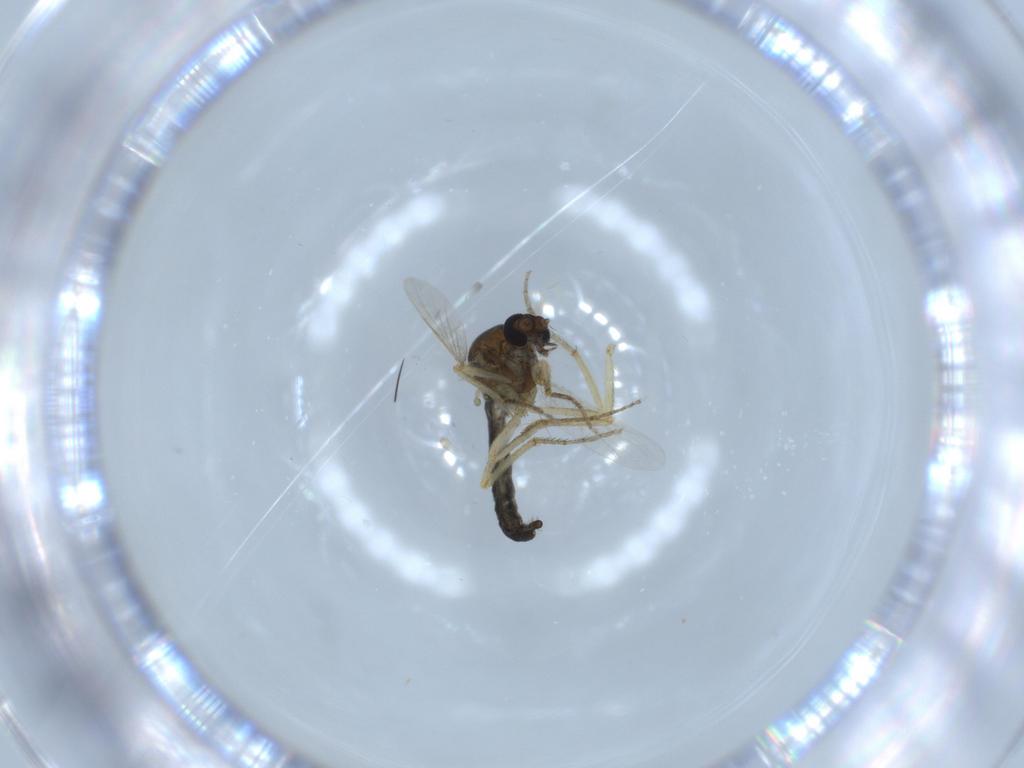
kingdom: Animalia
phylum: Arthropoda
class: Insecta
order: Diptera
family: Ceratopogonidae
